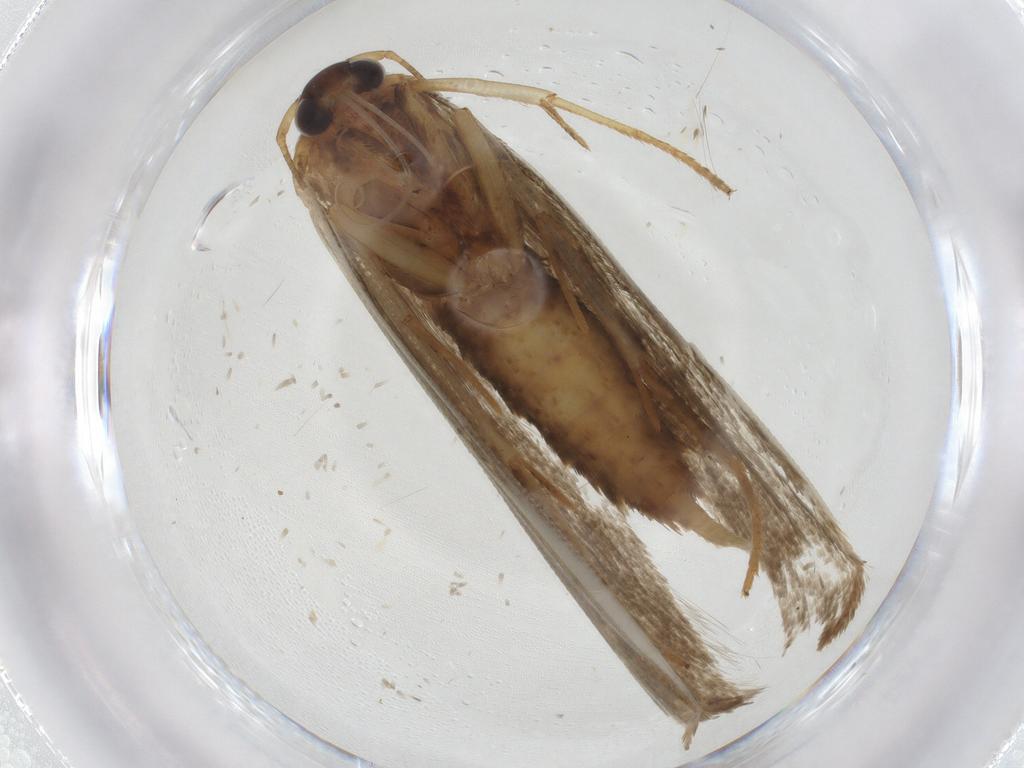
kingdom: Animalia
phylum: Arthropoda
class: Insecta
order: Lepidoptera
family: Blastobasidae
